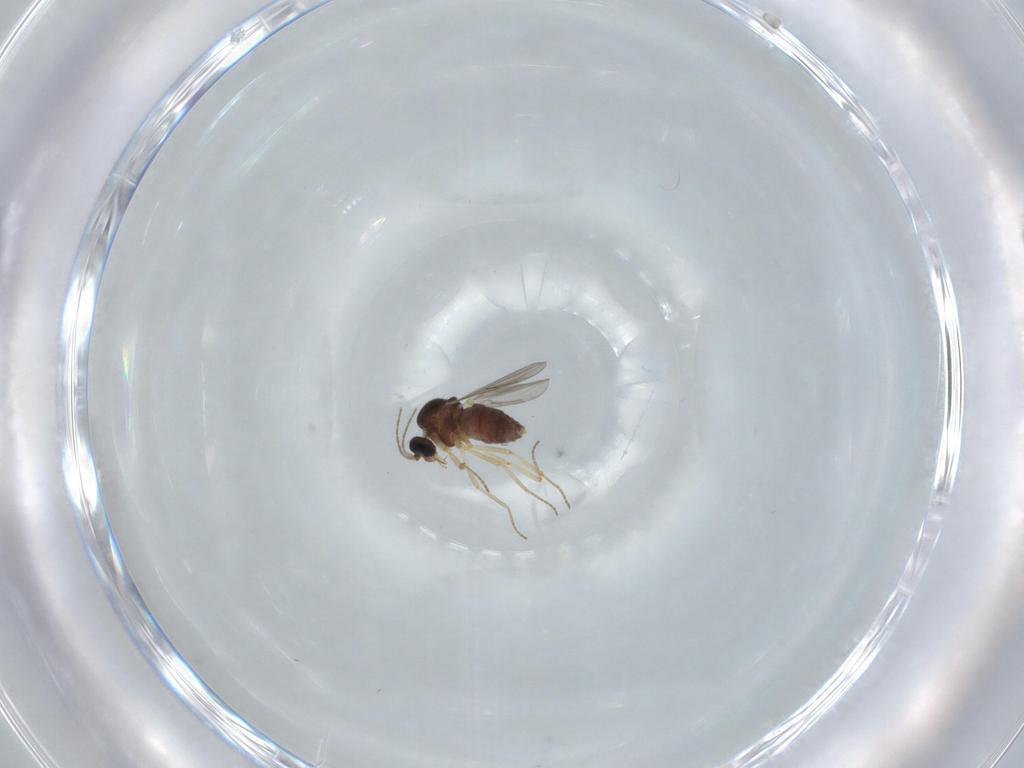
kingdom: Animalia
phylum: Arthropoda
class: Insecta
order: Diptera
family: Ceratopogonidae
